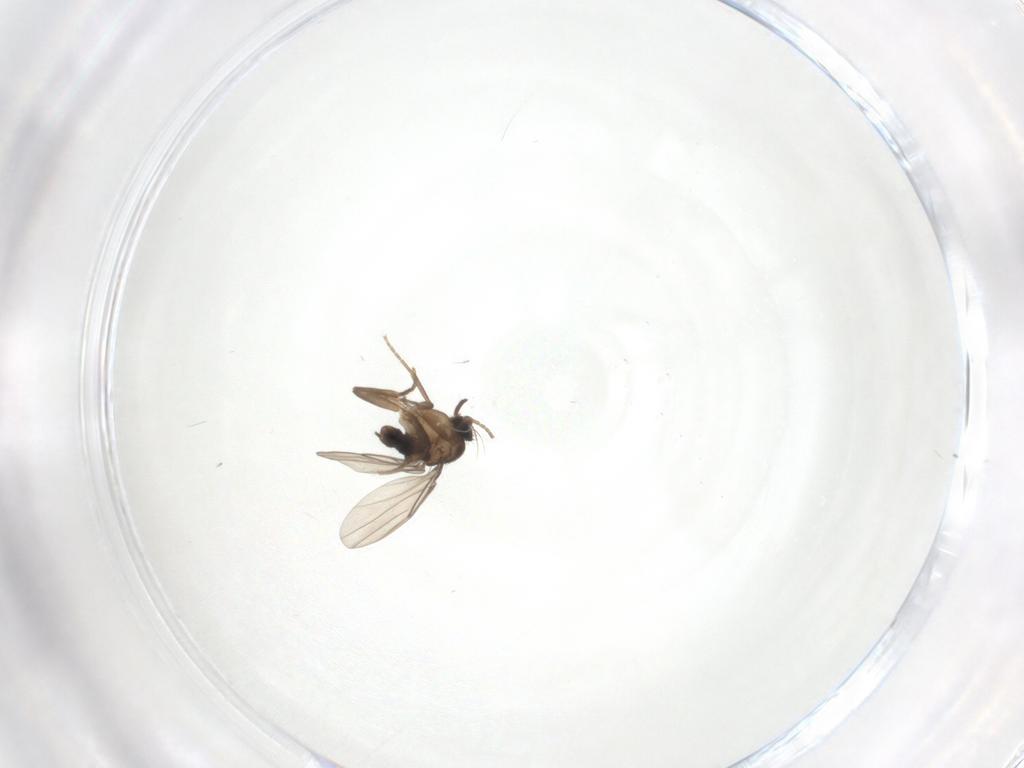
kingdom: Animalia
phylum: Arthropoda
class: Insecta
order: Diptera
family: Phoridae
